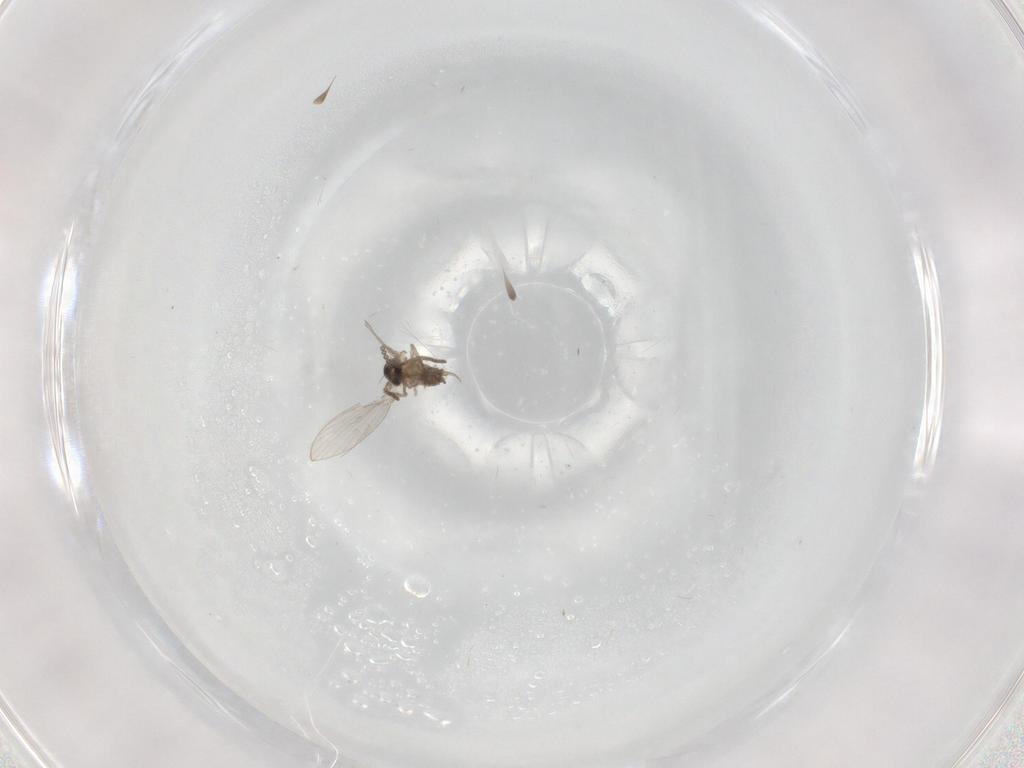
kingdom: Animalia
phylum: Arthropoda
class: Insecta
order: Diptera
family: Psychodidae
